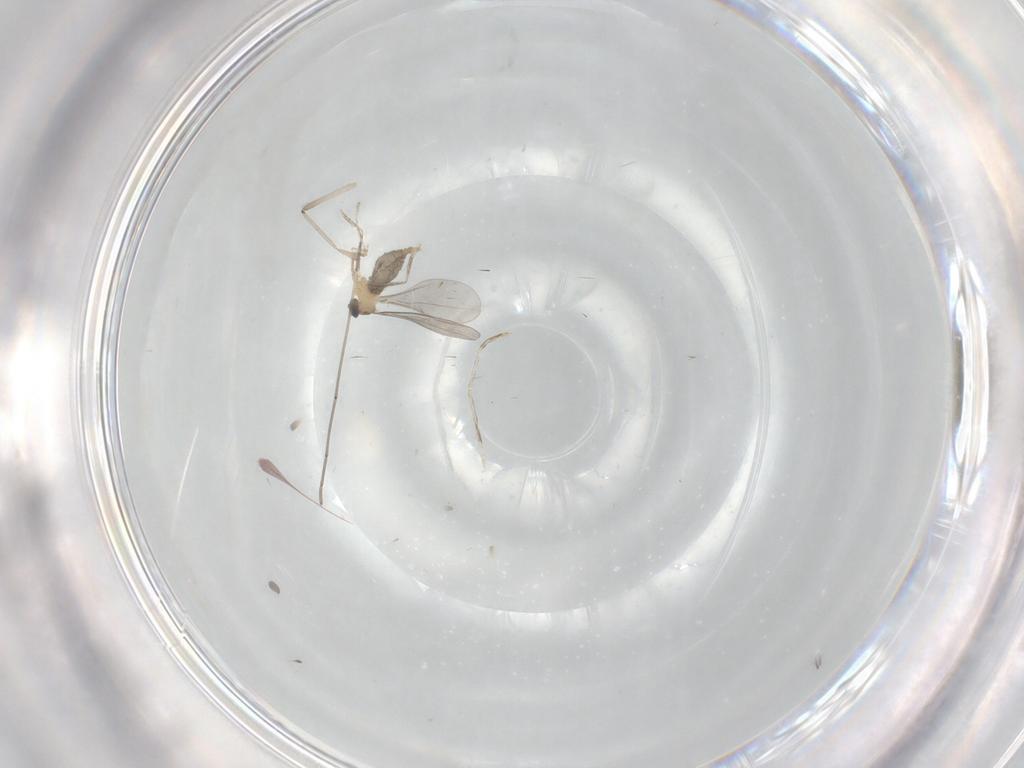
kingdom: Animalia
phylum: Arthropoda
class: Insecta
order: Diptera
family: Cecidomyiidae
